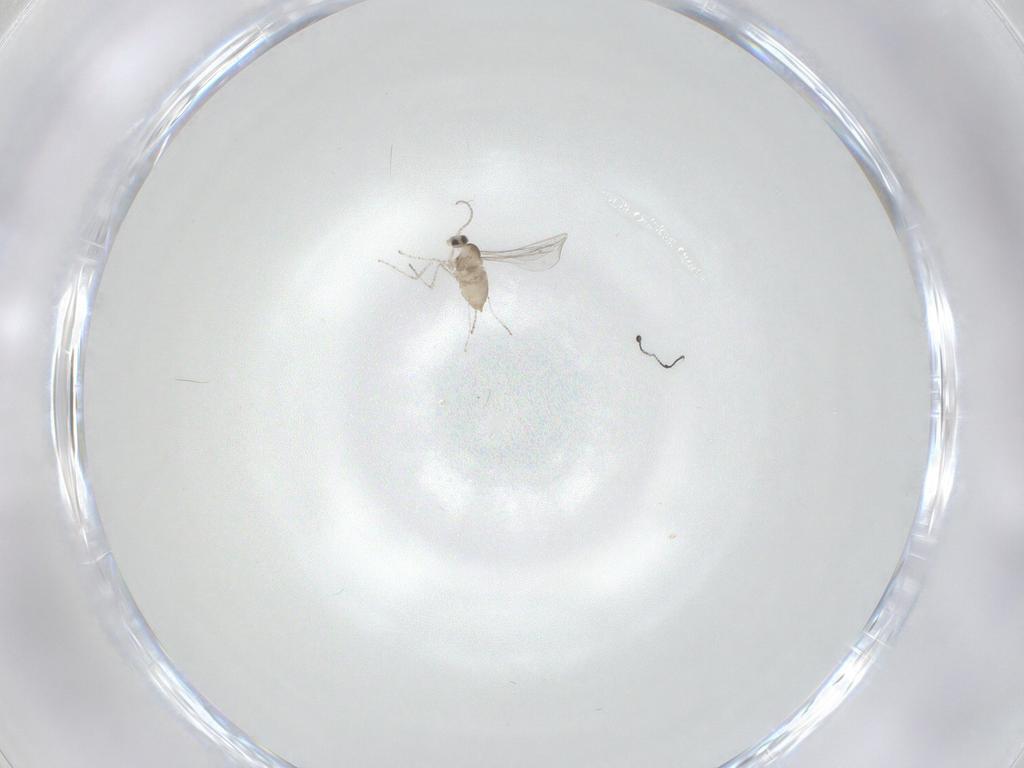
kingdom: Animalia
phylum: Arthropoda
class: Insecta
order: Diptera
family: Cecidomyiidae
